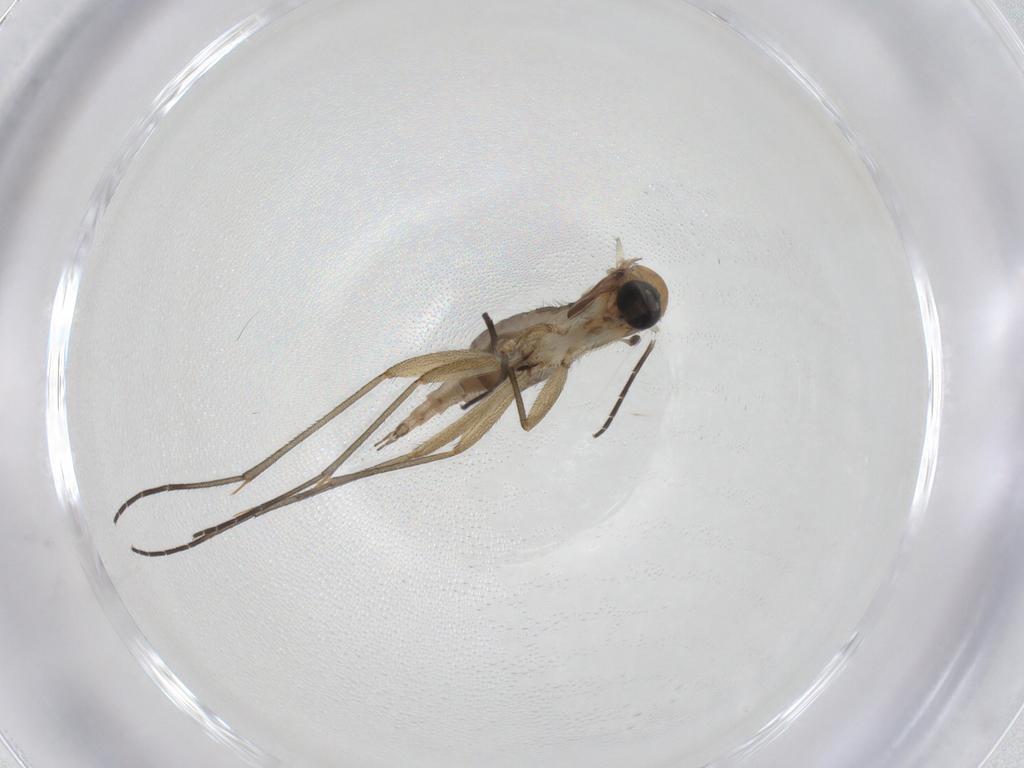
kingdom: Animalia
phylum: Arthropoda
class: Insecta
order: Diptera
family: Sciaridae
